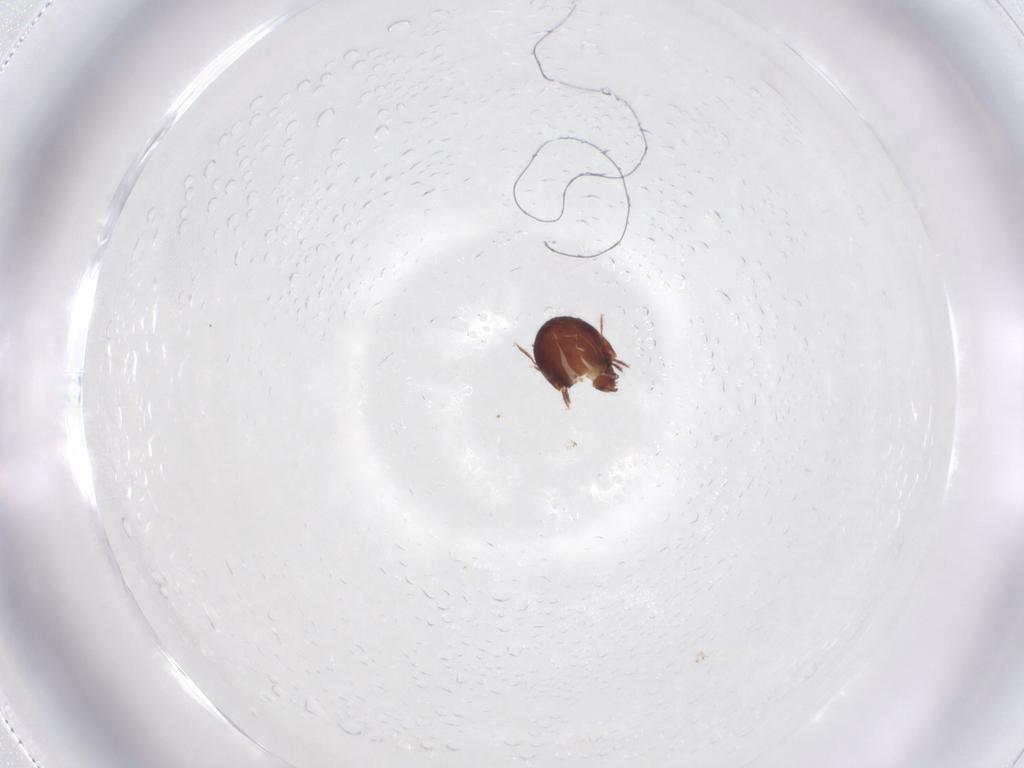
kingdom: Animalia
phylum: Arthropoda
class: Arachnida
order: Sarcoptiformes
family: Humerobatidae
